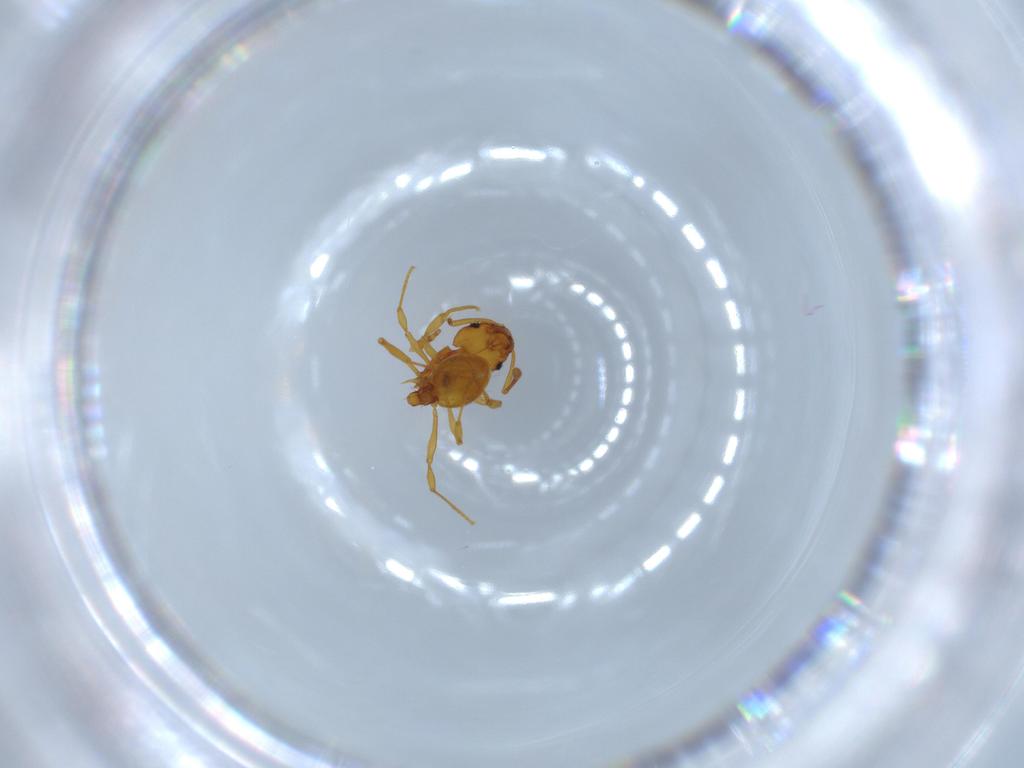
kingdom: Animalia
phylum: Arthropoda
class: Insecta
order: Hymenoptera
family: Formicidae
